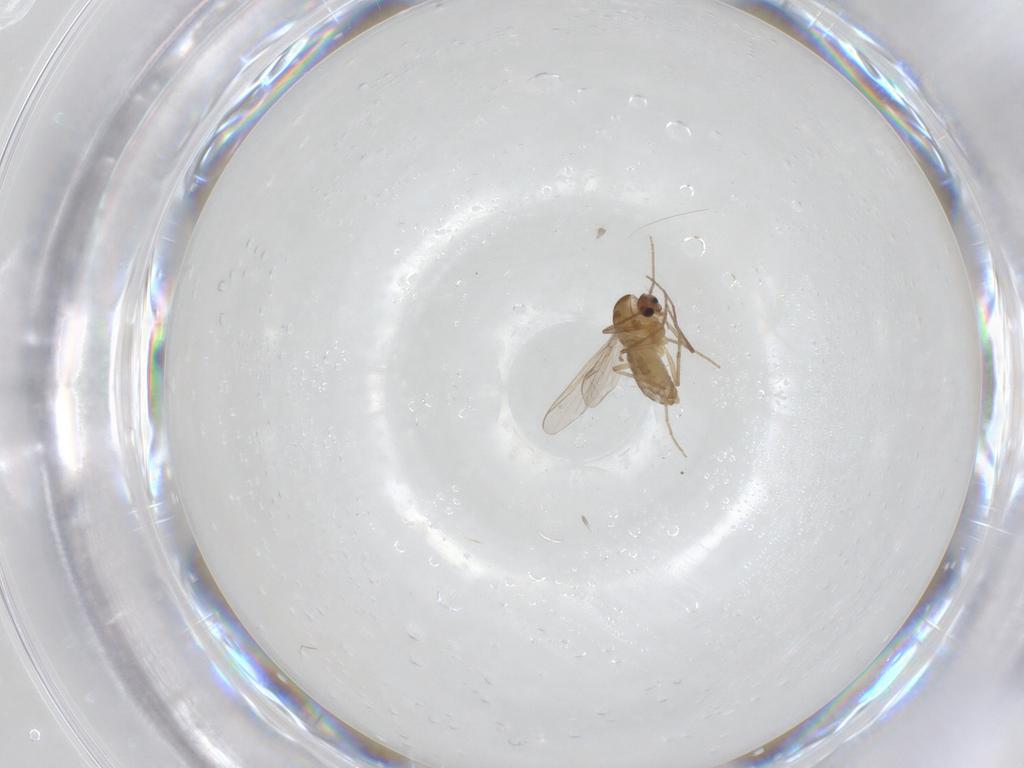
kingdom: Animalia
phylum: Arthropoda
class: Insecta
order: Diptera
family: Chironomidae
